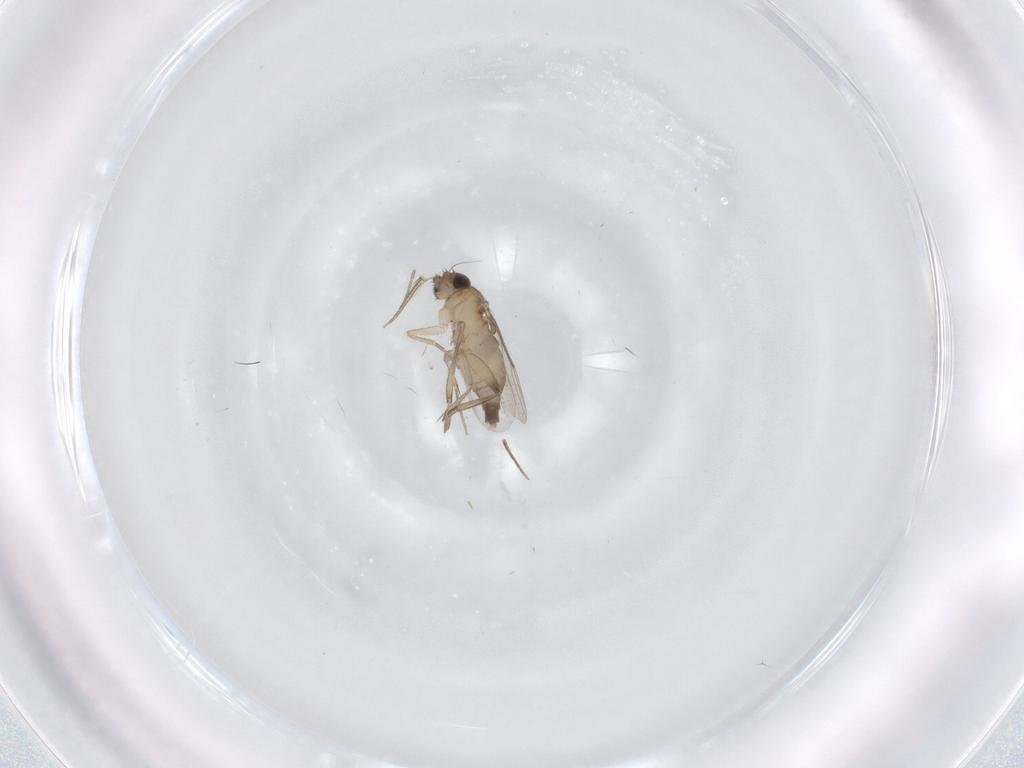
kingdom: Animalia
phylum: Arthropoda
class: Insecta
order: Diptera
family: Phoridae
